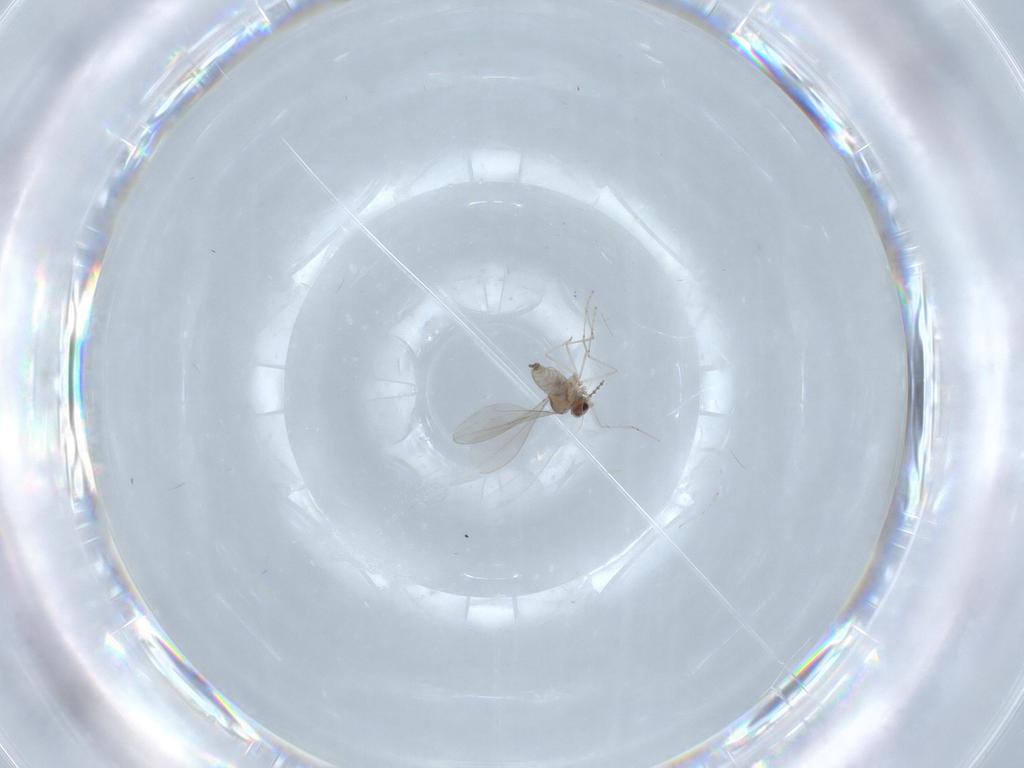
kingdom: Animalia
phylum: Arthropoda
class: Insecta
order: Diptera
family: Cecidomyiidae
